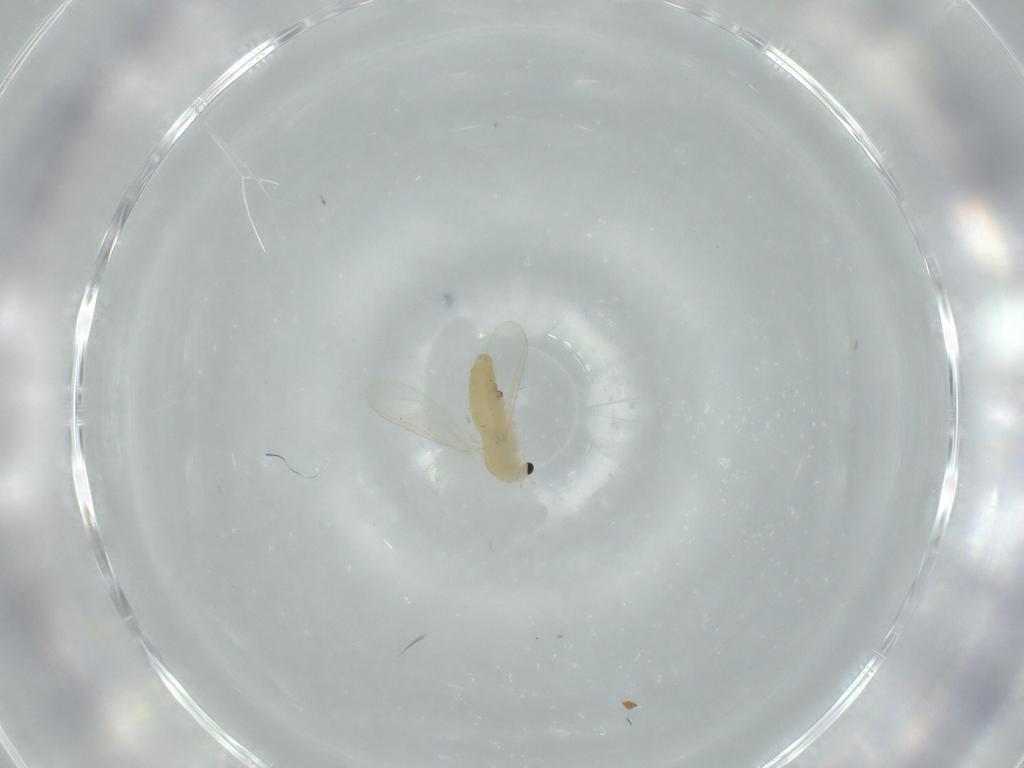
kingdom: Animalia
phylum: Arthropoda
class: Insecta
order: Diptera
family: Chironomidae
